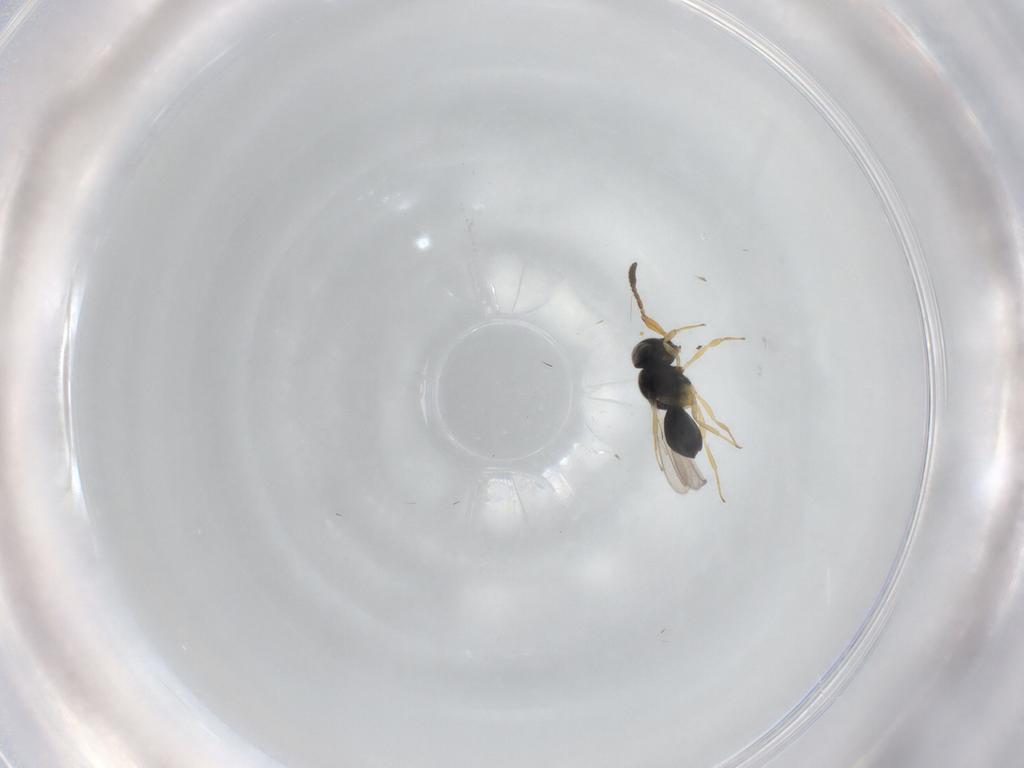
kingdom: Animalia
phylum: Arthropoda
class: Insecta
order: Hymenoptera
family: Scelionidae
